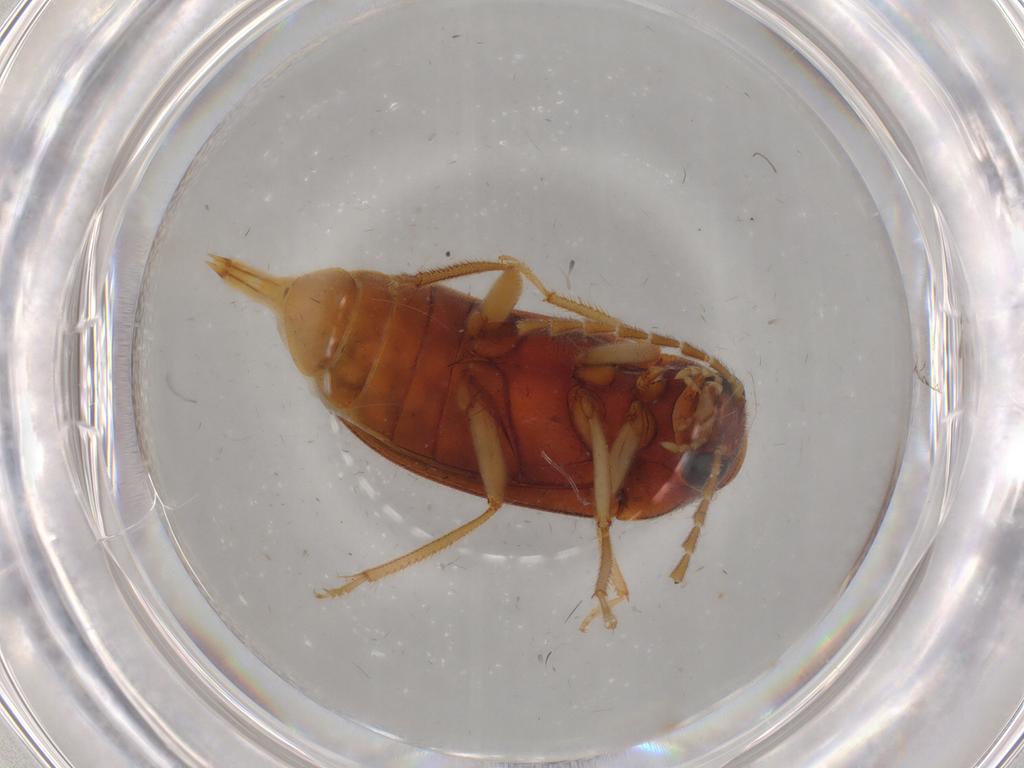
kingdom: Animalia
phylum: Arthropoda
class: Insecta
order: Coleoptera
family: Ptilodactylidae
